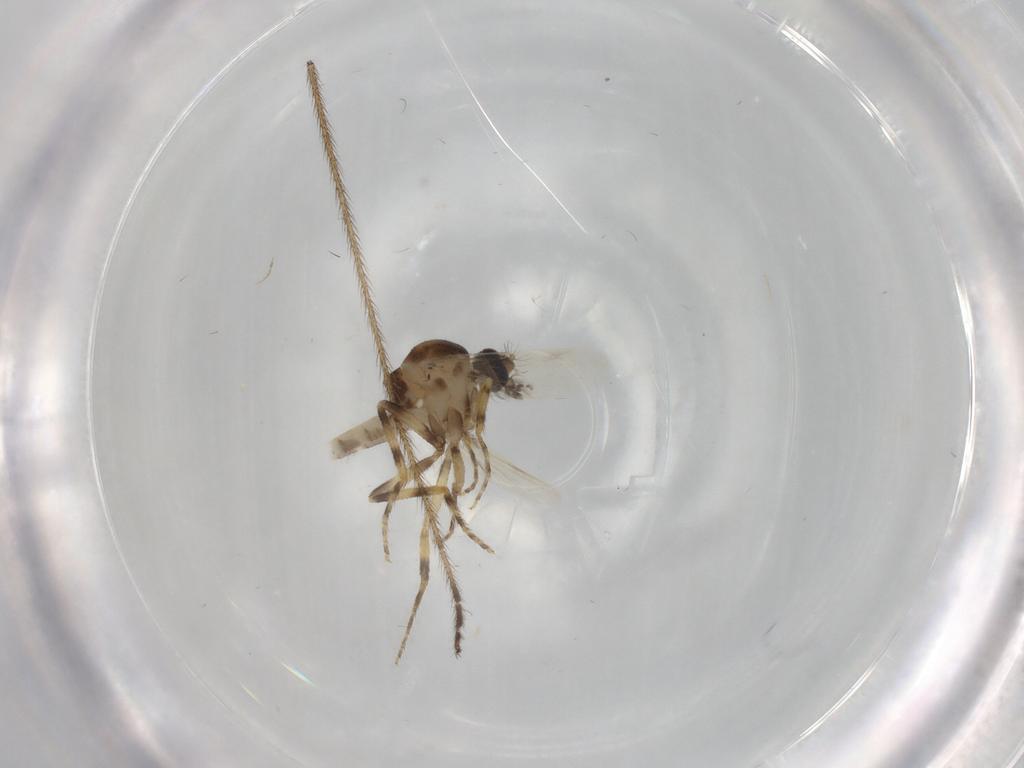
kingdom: Animalia
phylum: Arthropoda
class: Insecta
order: Diptera
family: Ceratopogonidae
